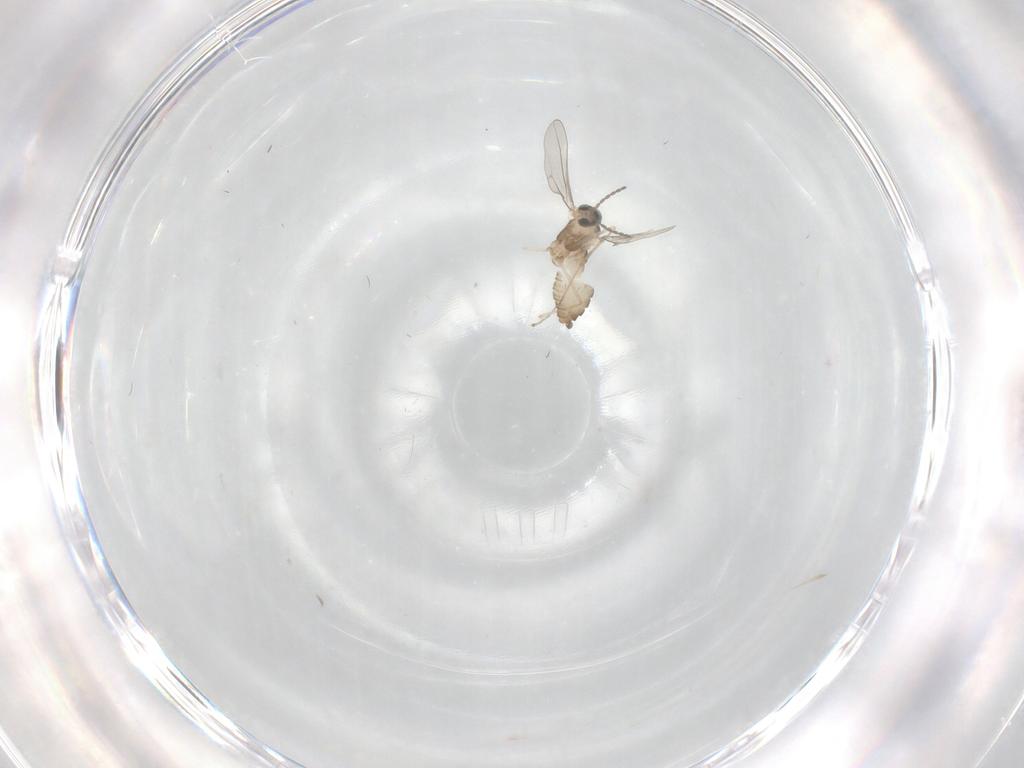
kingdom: Animalia
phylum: Arthropoda
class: Insecta
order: Diptera
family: Cecidomyiidae
